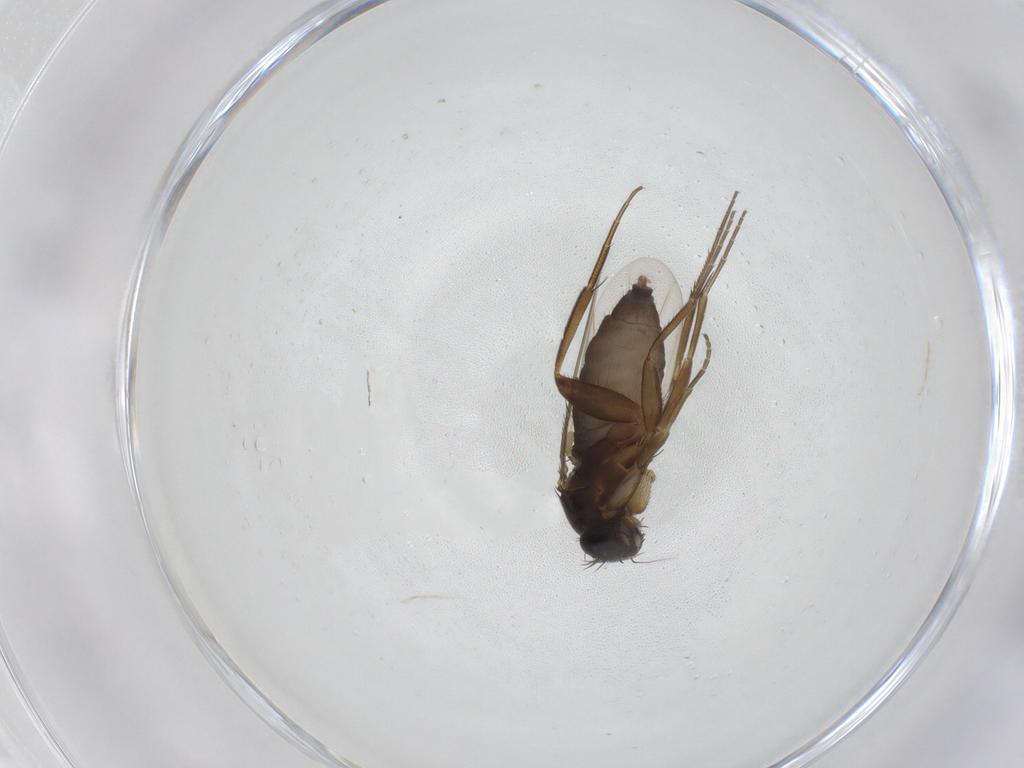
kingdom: Animalia
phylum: Arthropoda
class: Insecta
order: Diptera
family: Phoridae
